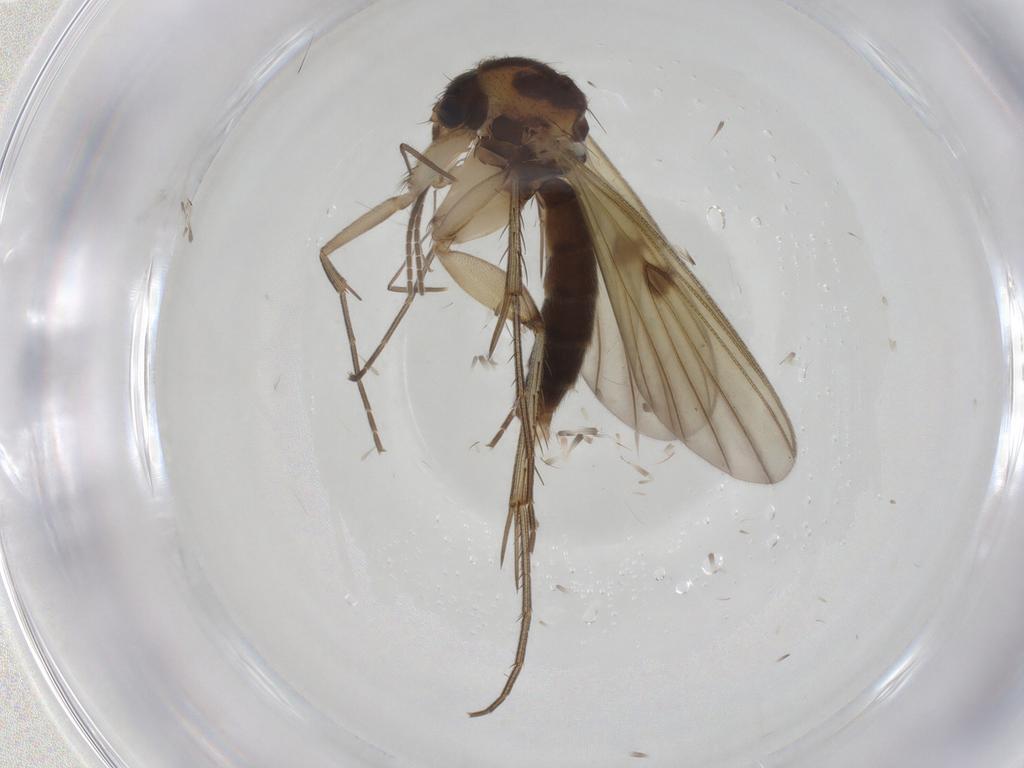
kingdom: Animalia
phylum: Arthropoda
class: Insecta
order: Diptera
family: Mycetophilidae
